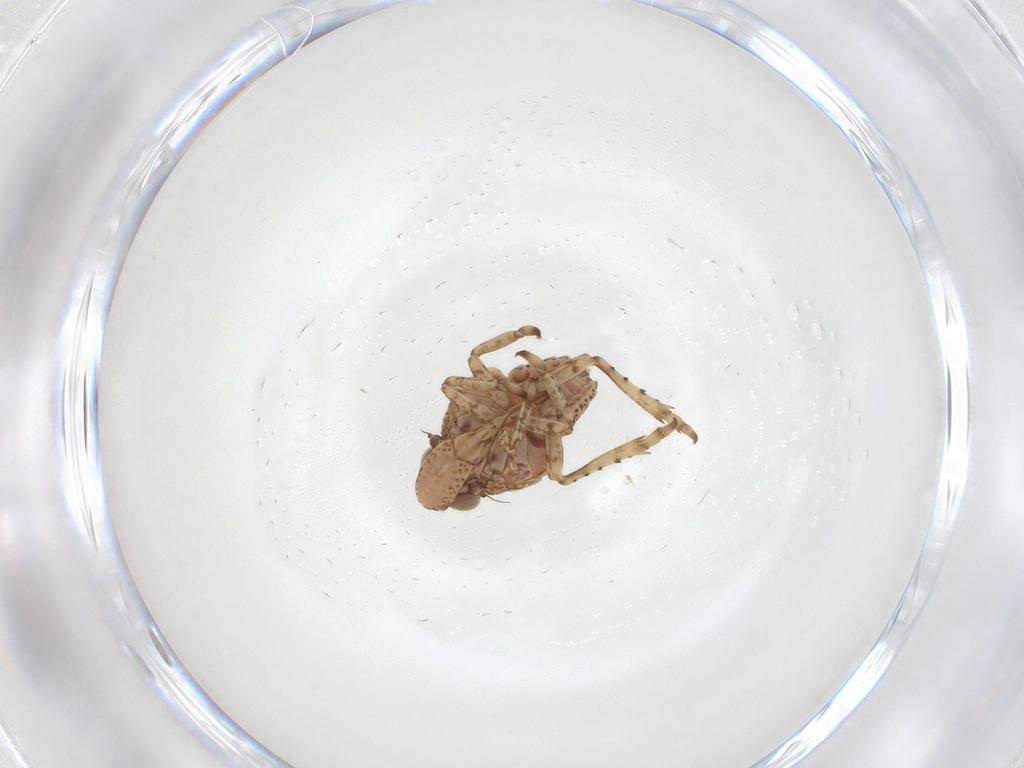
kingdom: Animalia
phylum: Arthropoda
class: Insecta
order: Hemiptera
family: Tropiduchidae
